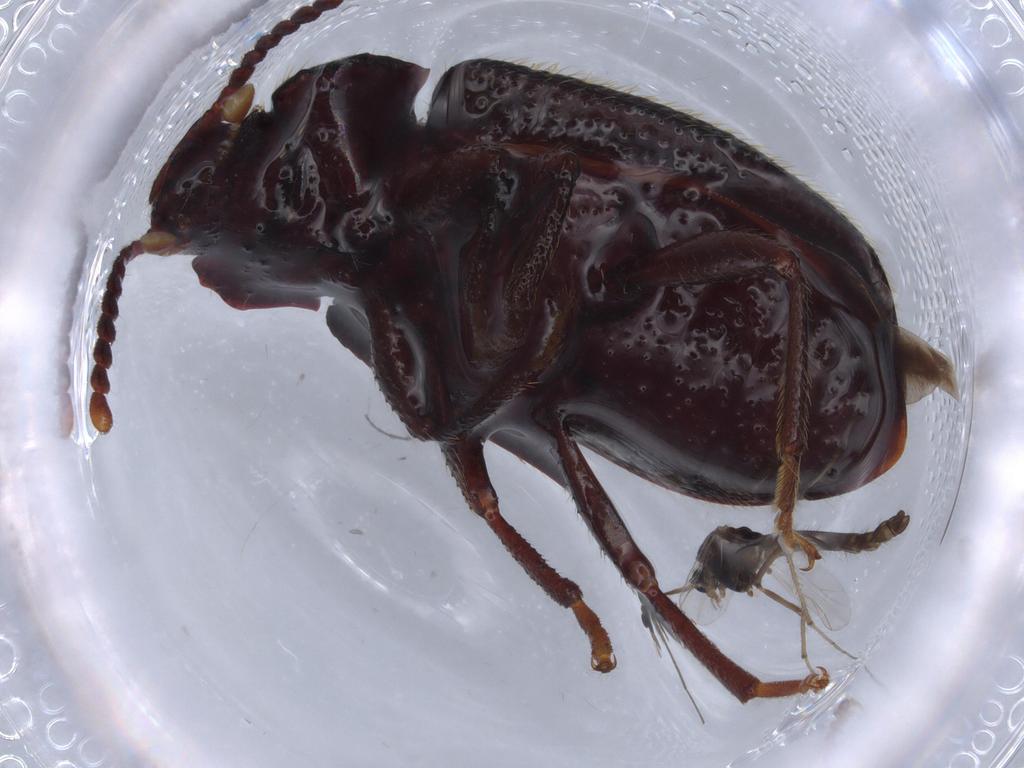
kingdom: Animalia
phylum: Arthropoda
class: Insecta
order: Diptera
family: Chironomidae
